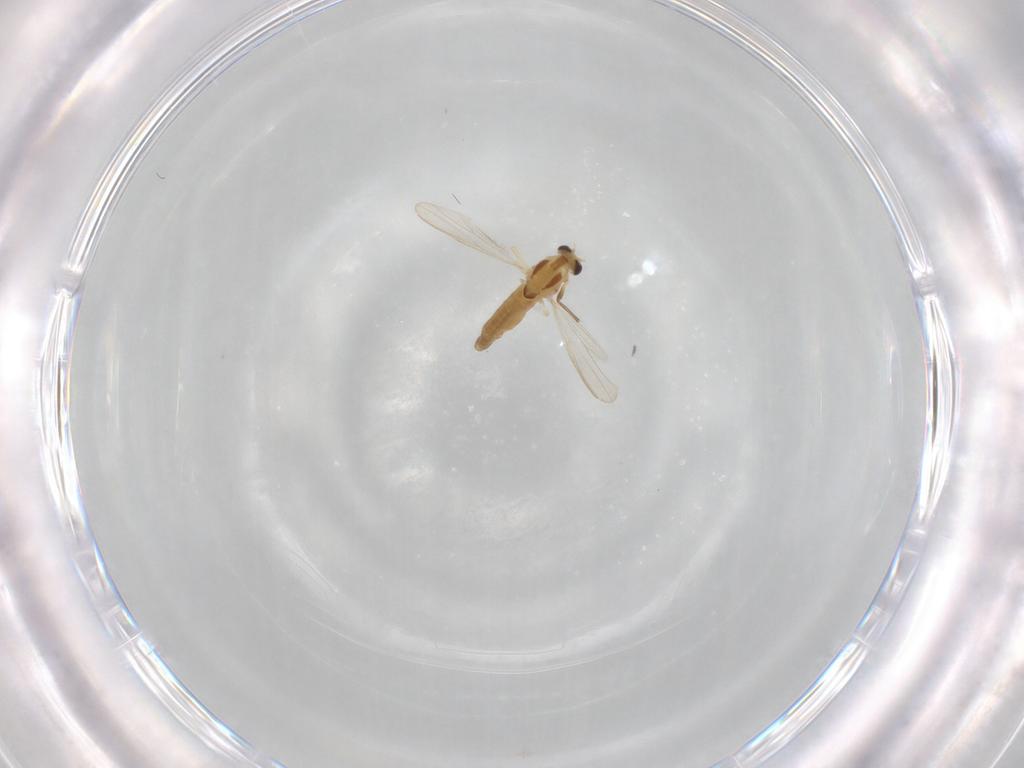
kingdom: Animalia
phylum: Arthropoda
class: Insecta
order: Diptera
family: Chironomidae
